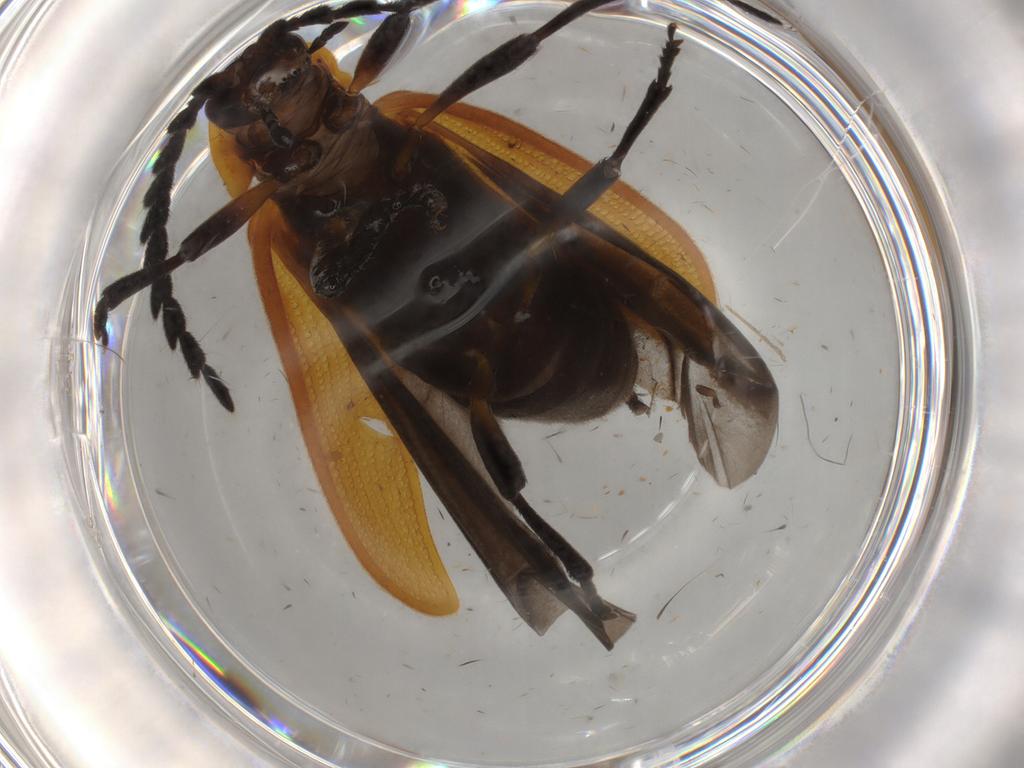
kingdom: Animalia
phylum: Arthropoda
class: Insecta
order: Coleoptera
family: Lycidae
